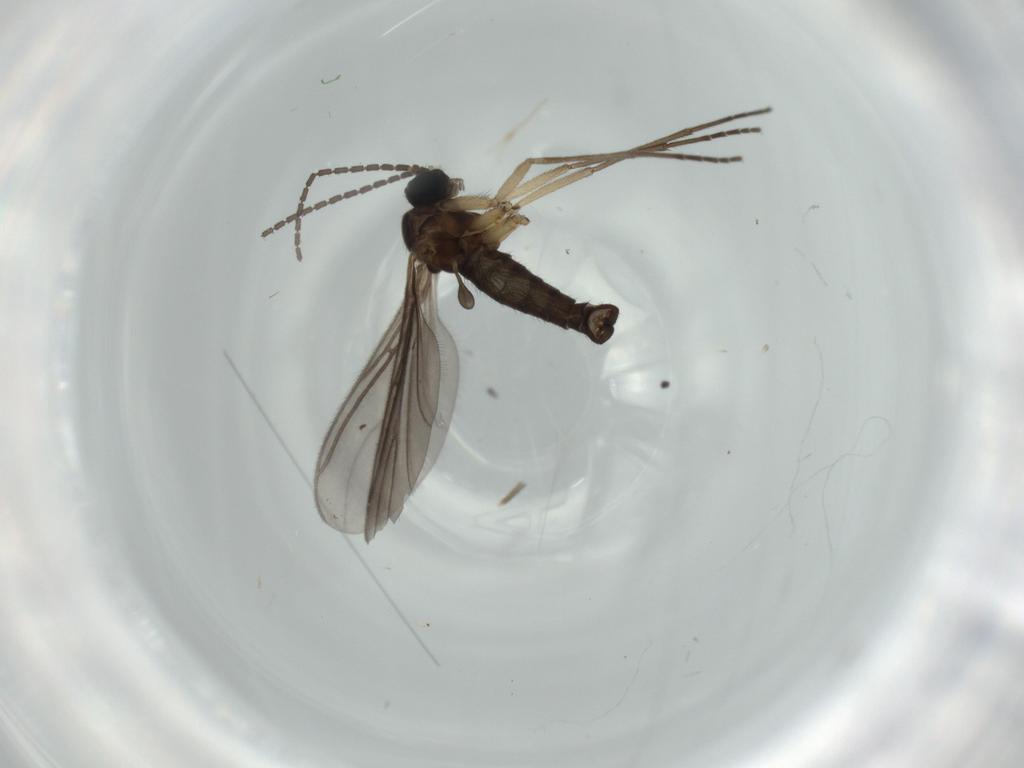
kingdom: Animalia
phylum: Arthropoda
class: Insecta
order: Diptera
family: Sciaridae
